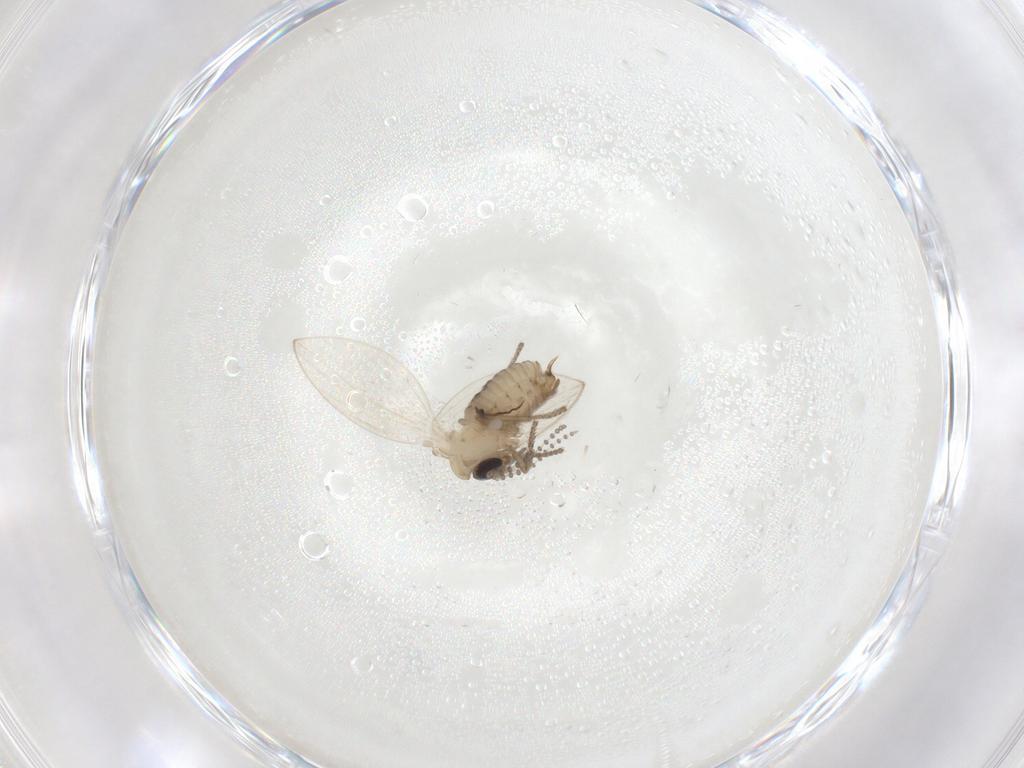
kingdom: Animalia
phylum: Arthropoda
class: Insecta
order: Diptera
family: Psychodidae
